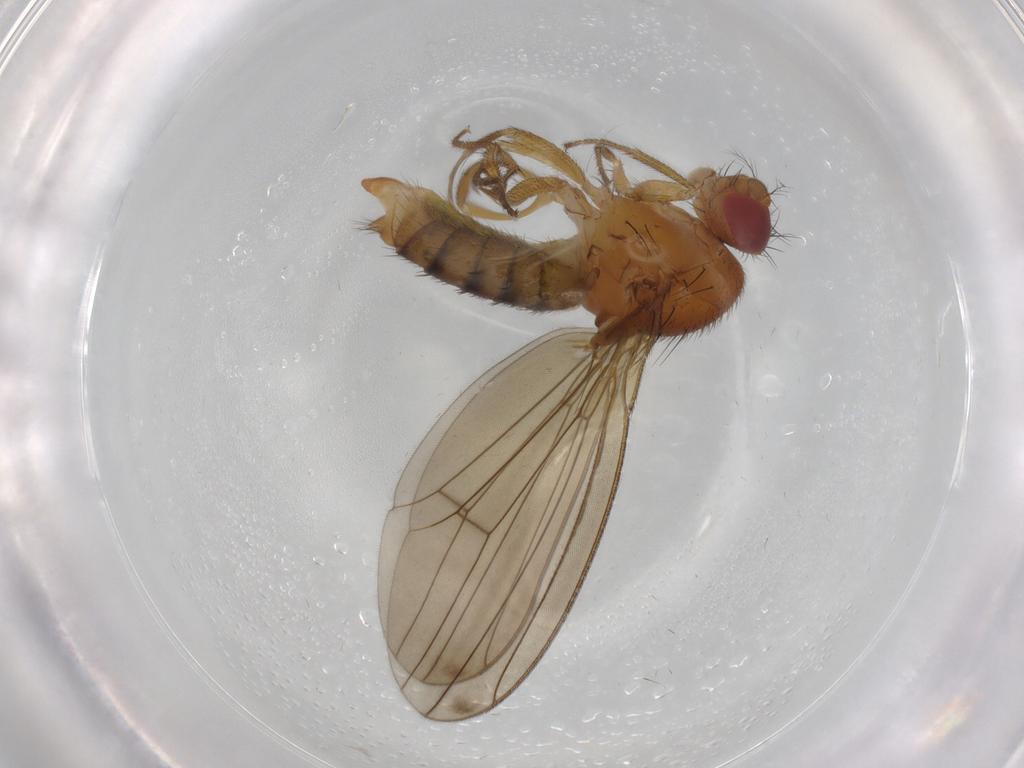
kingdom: Animalia
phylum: Arthropoda
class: Insecta
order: Diptera
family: Drosophilidae
